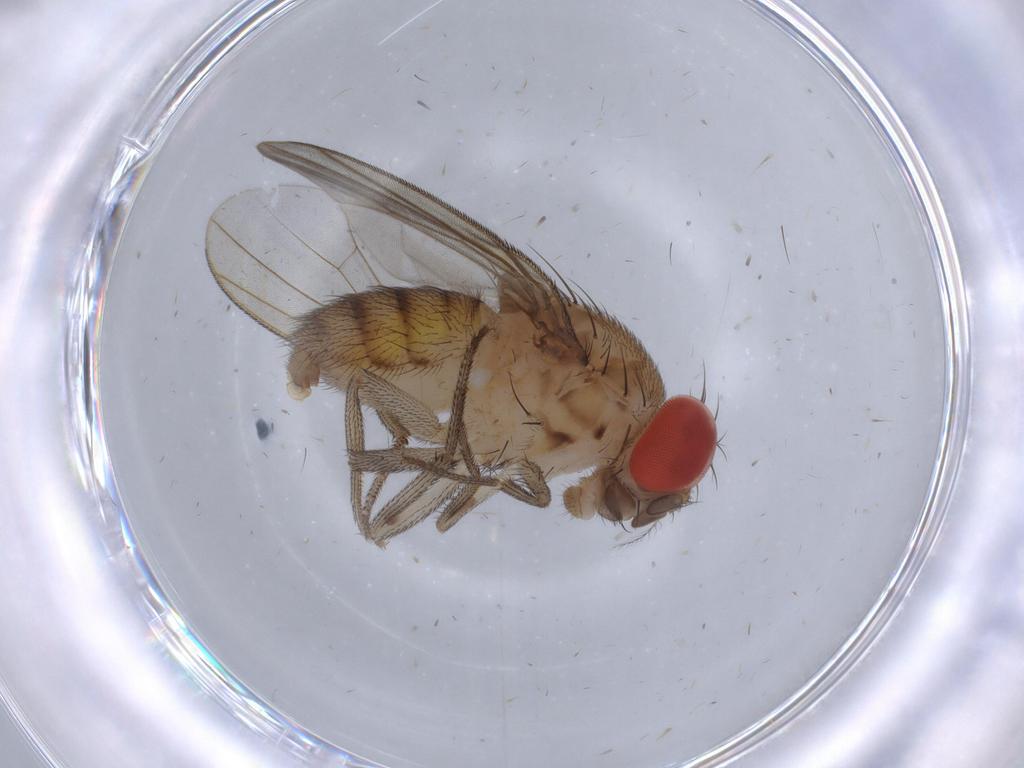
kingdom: Animalia
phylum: Arthropoda
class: Insecta
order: Diptera
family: Drosophilidae
